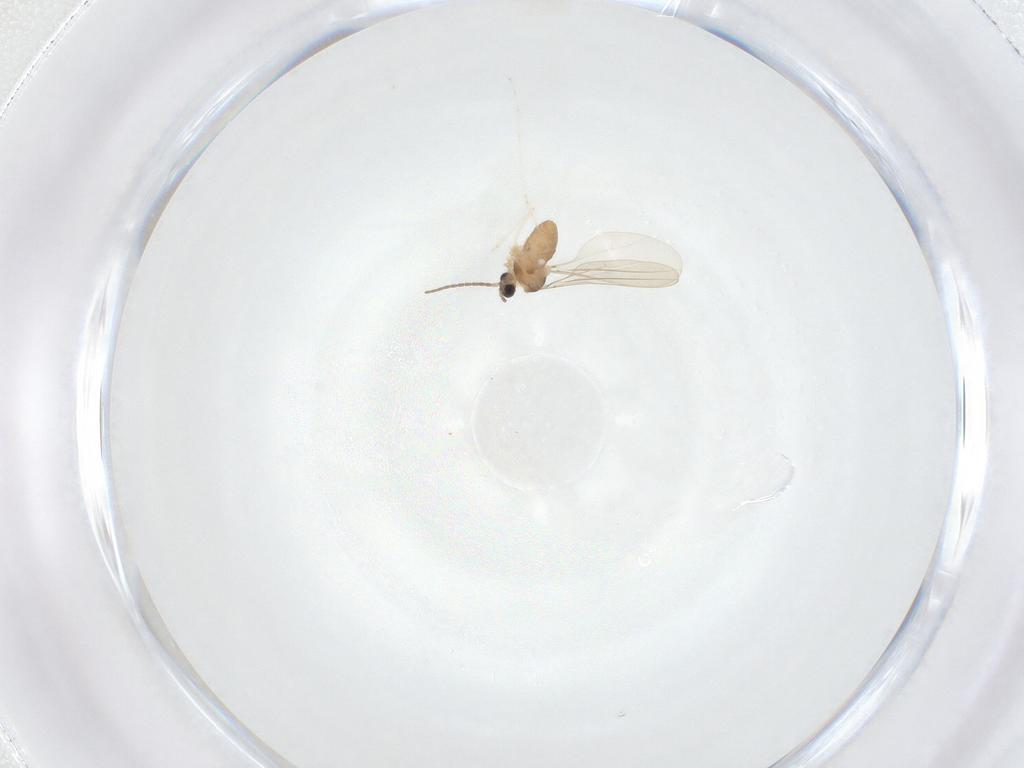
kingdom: Animalia
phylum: Arthropoda
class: Insecta
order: Diptera
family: Cecidomyiidae
